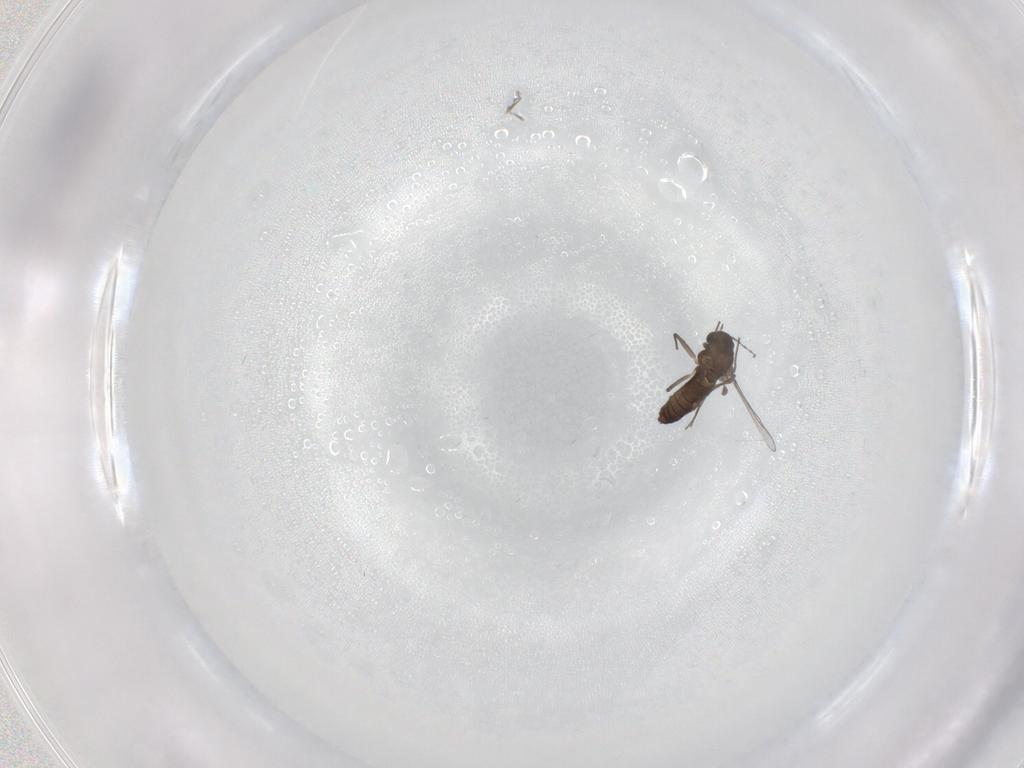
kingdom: Animalia
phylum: Arthropoda
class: Insecta
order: Diptera
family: Chironomidae
